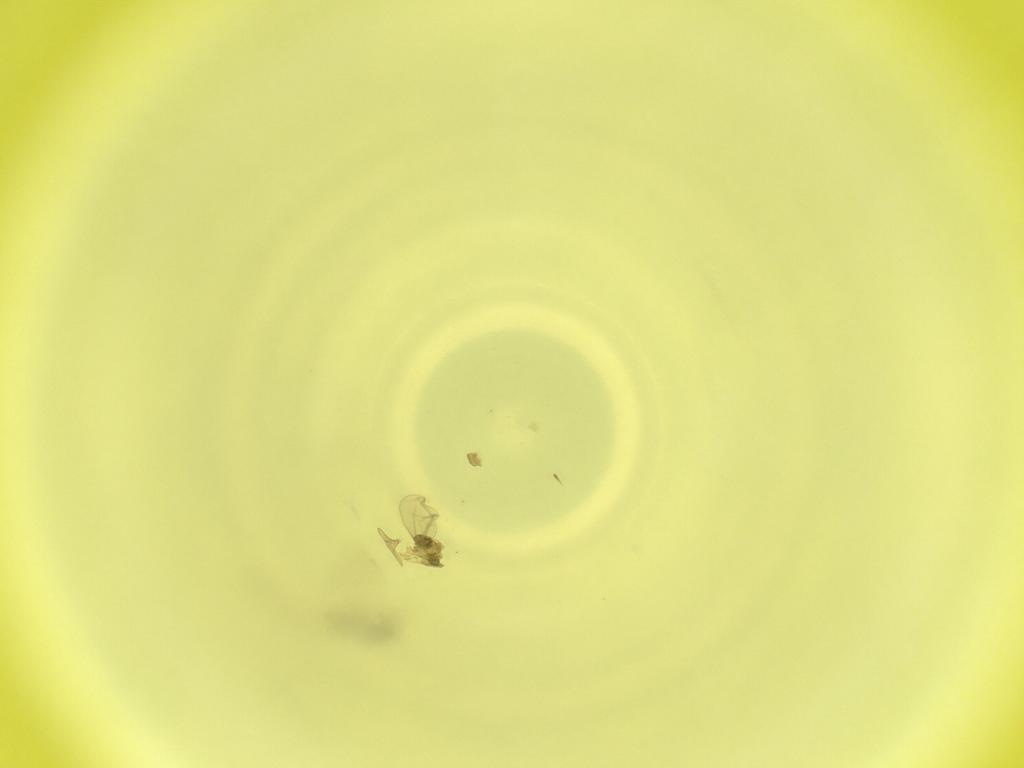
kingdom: Animalia
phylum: Arthropoda
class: Insecta
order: Diptera
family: Cecidomyiidae
